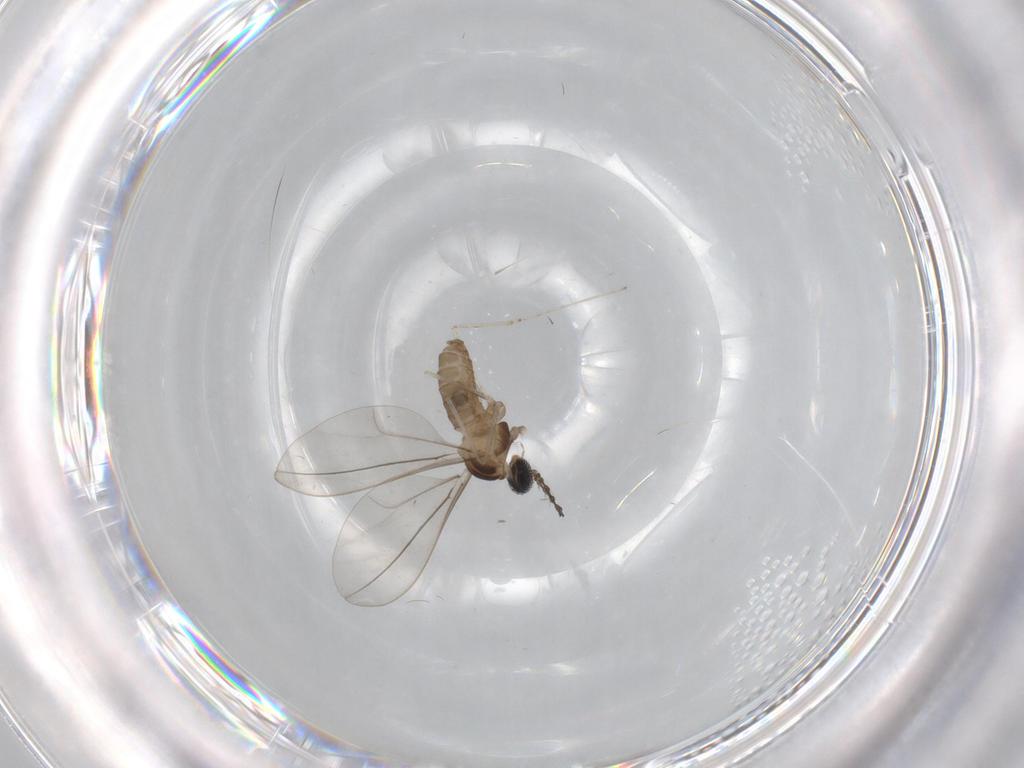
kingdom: Animalia
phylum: Arthropoda
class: Insecta
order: Diptera
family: Cecidomyiidae
